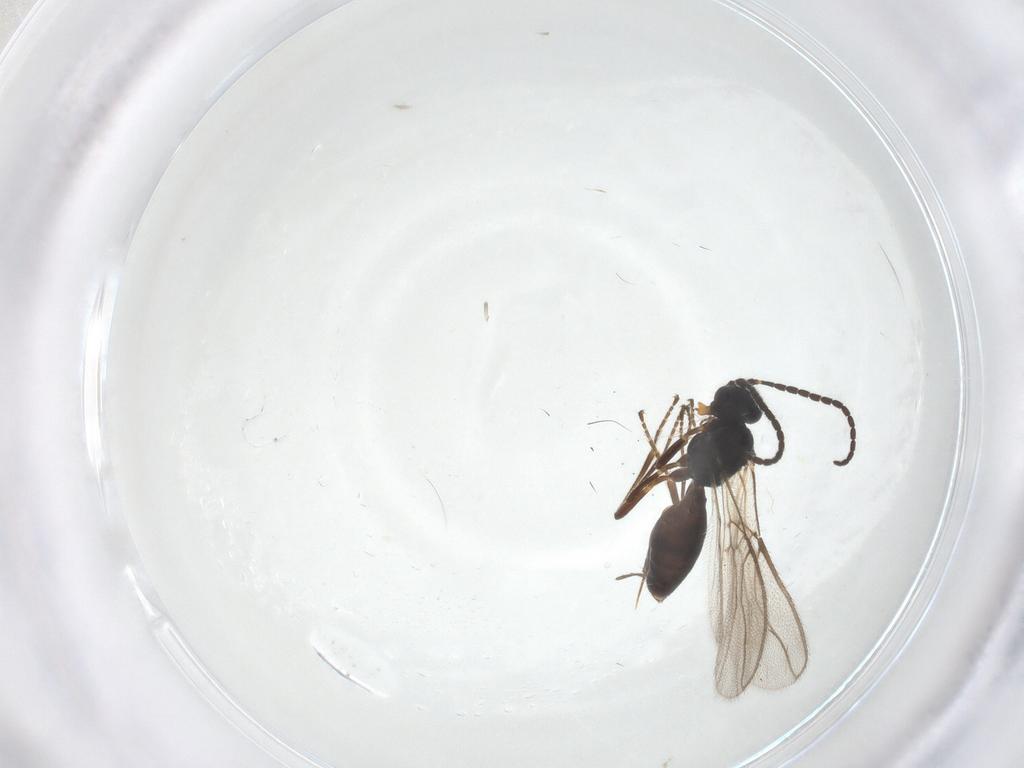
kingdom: Animalia
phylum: Arthropoda
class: Insecta
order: Hymenoptera
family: Braconidae
